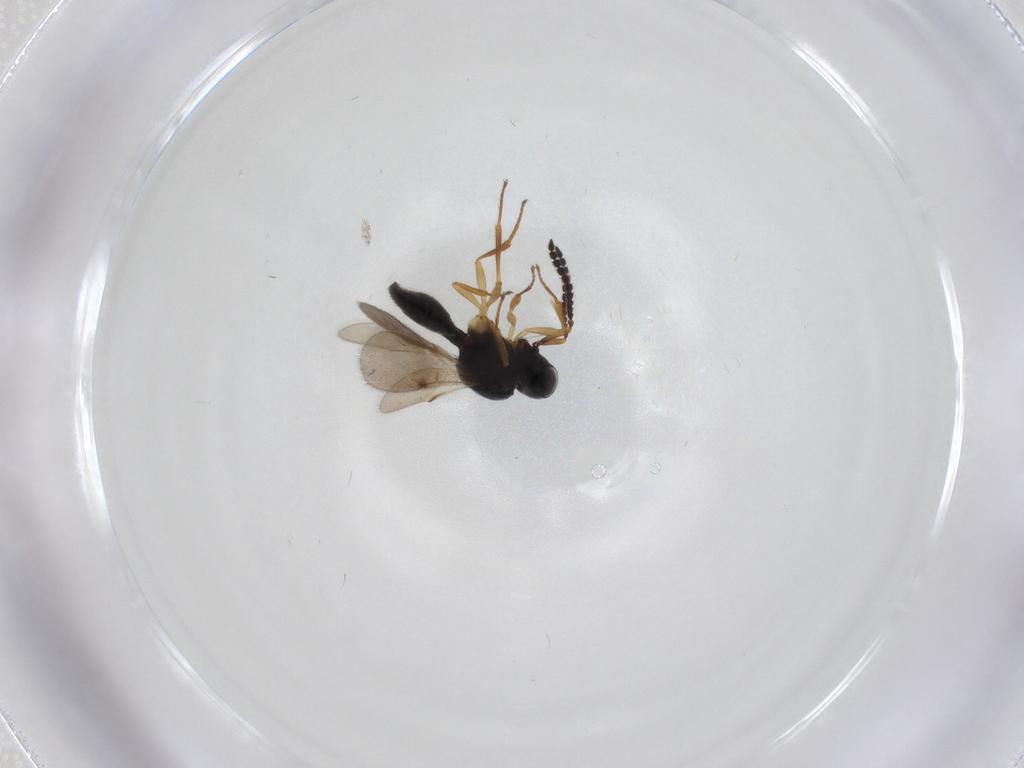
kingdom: Animalia
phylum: Arthropoda
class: Insecta
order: Hymenoptera
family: Scelionidae
